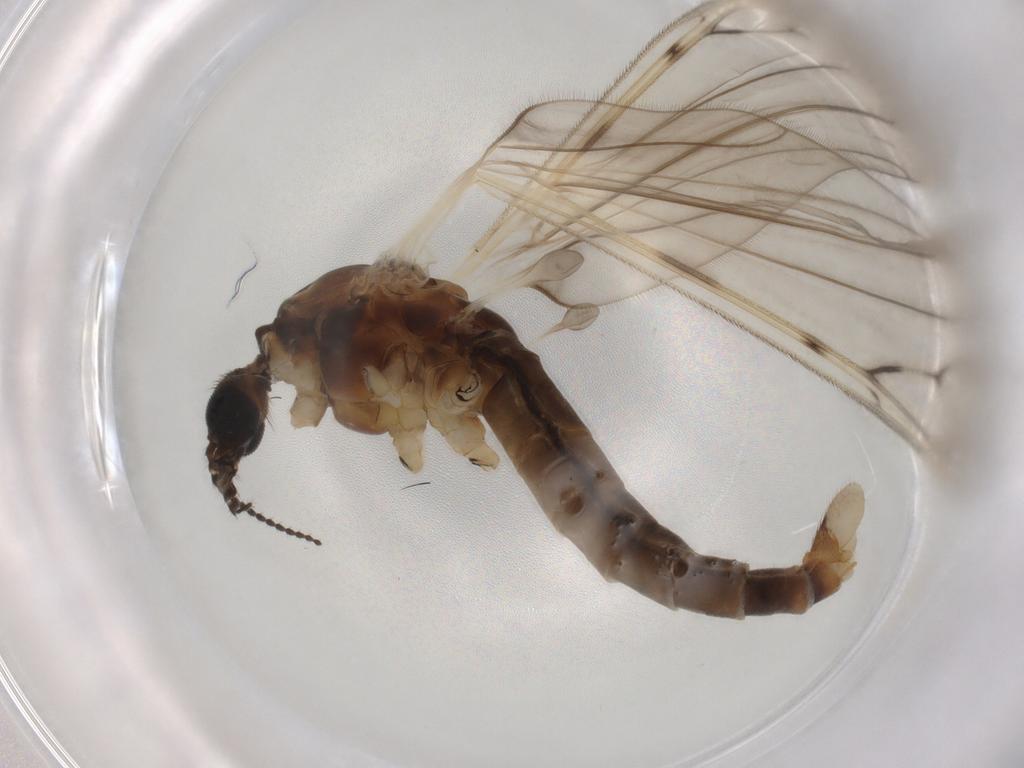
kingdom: Animalia
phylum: Arthropoda
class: Insecta
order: Diptera
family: Cecidomyiidae
